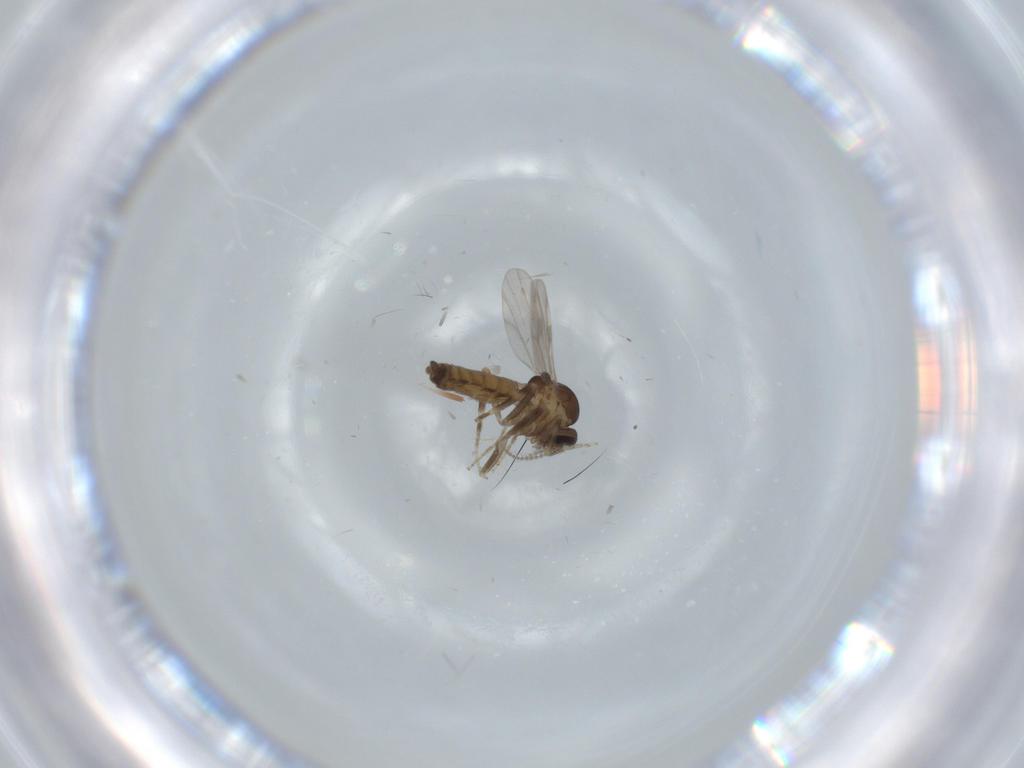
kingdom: Animalia
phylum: Arthropoda
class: Insecta
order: Diptera
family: Ceratopogonidae
